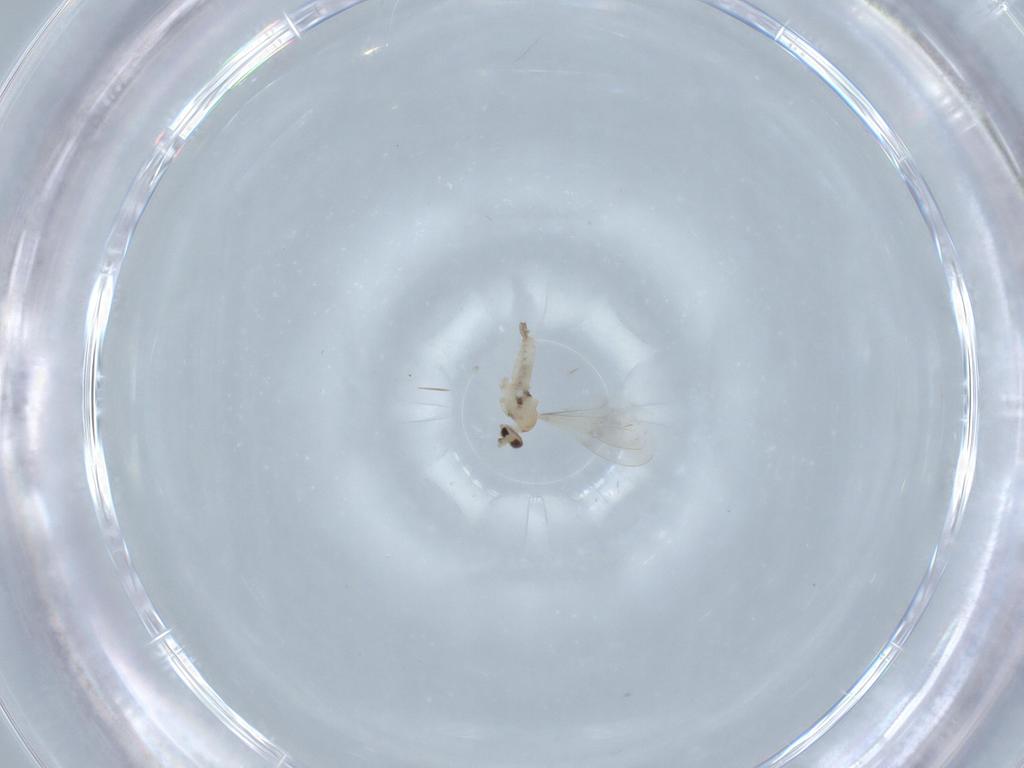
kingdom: Animalia
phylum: Arthropoda
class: Insecta
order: Diptera
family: Cecidomyiidae
